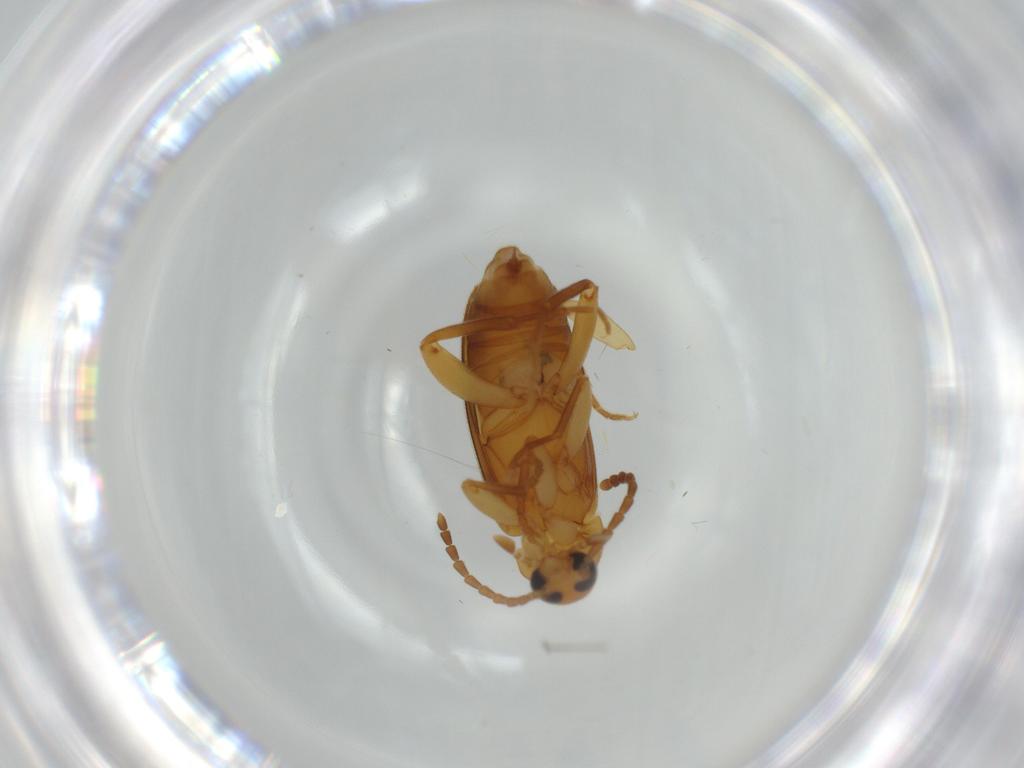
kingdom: Animalia
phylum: Arthropoda
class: Insecta
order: Coleoptera
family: Scraptiidae
